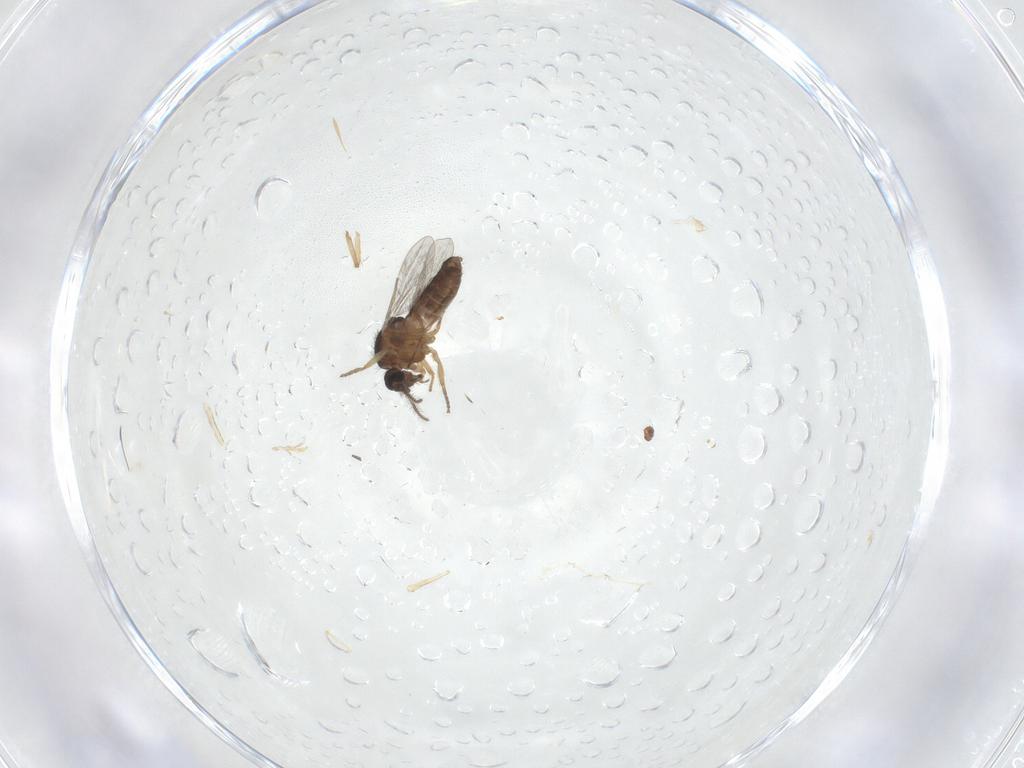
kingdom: Animalia
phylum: Arthropoda
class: Insecta
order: Diptera
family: Ceratopogonidae
